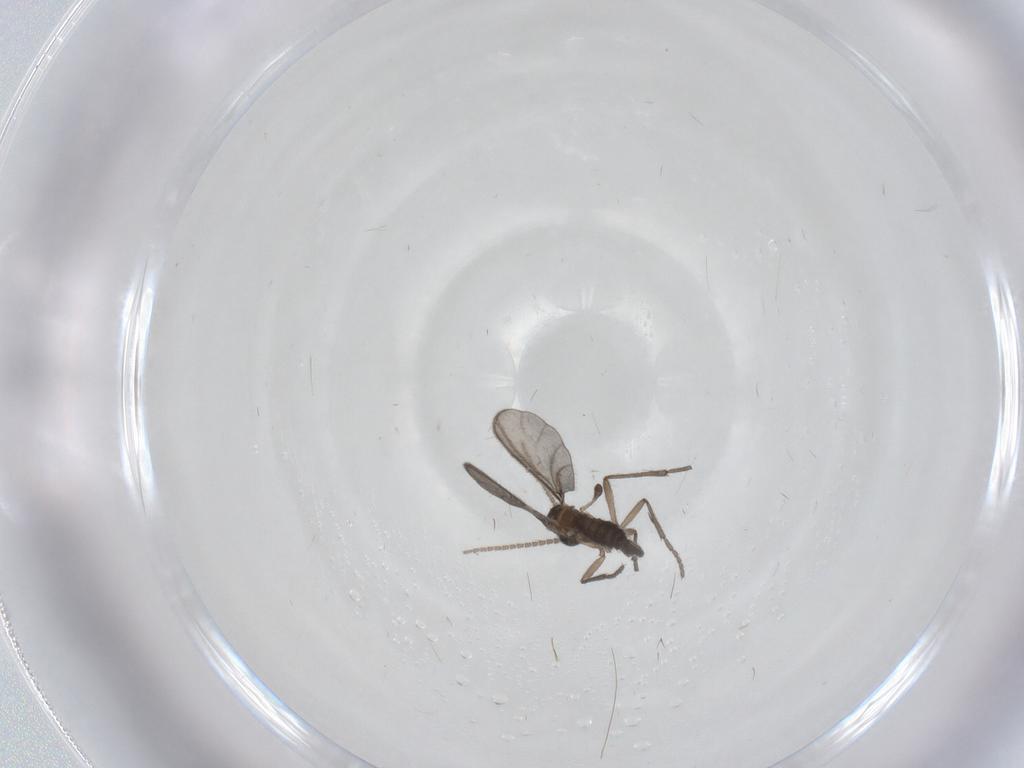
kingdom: Animalia
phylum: Arthropoda
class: Insecta
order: Diptera
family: Sciaridae
